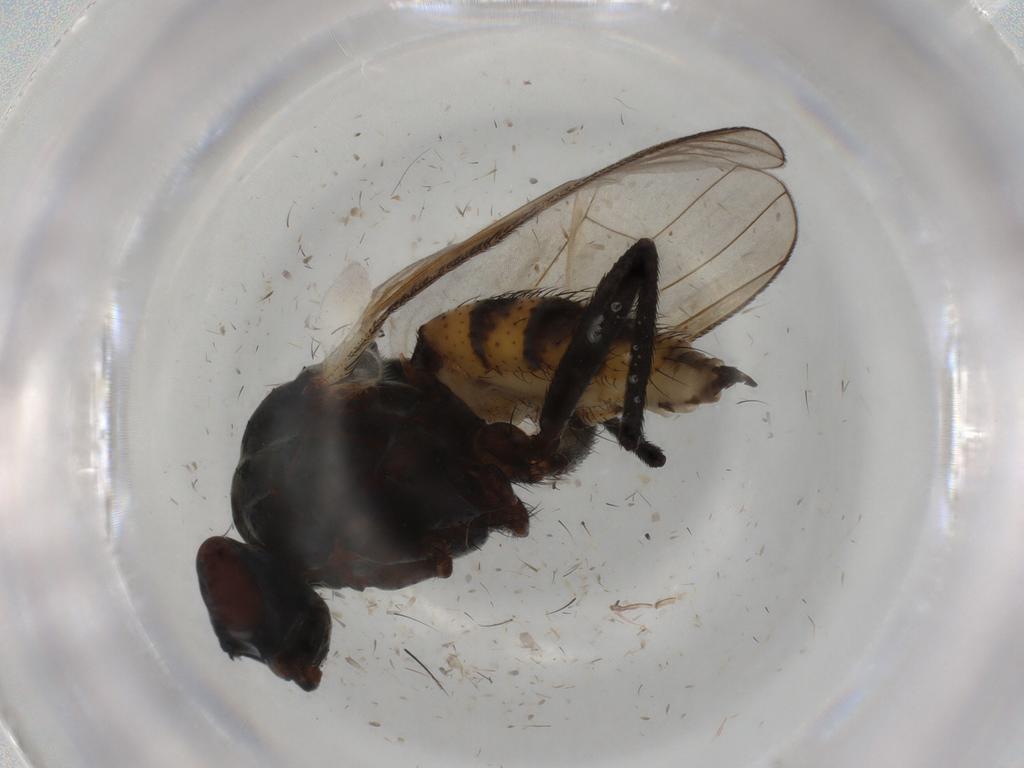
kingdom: Animalia
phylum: Arthropoda
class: Insecta
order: Diptera
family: Anthomyiidae
